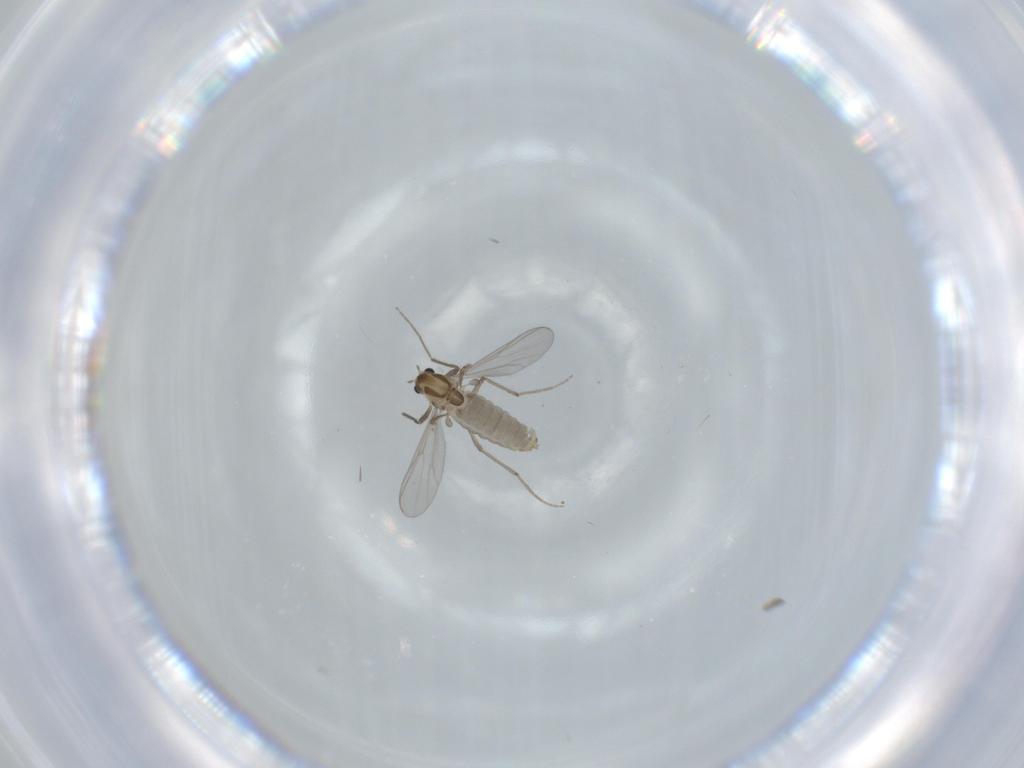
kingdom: Animalia
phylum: Arthropoda
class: Insecta
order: Diptera
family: Chironomidae
